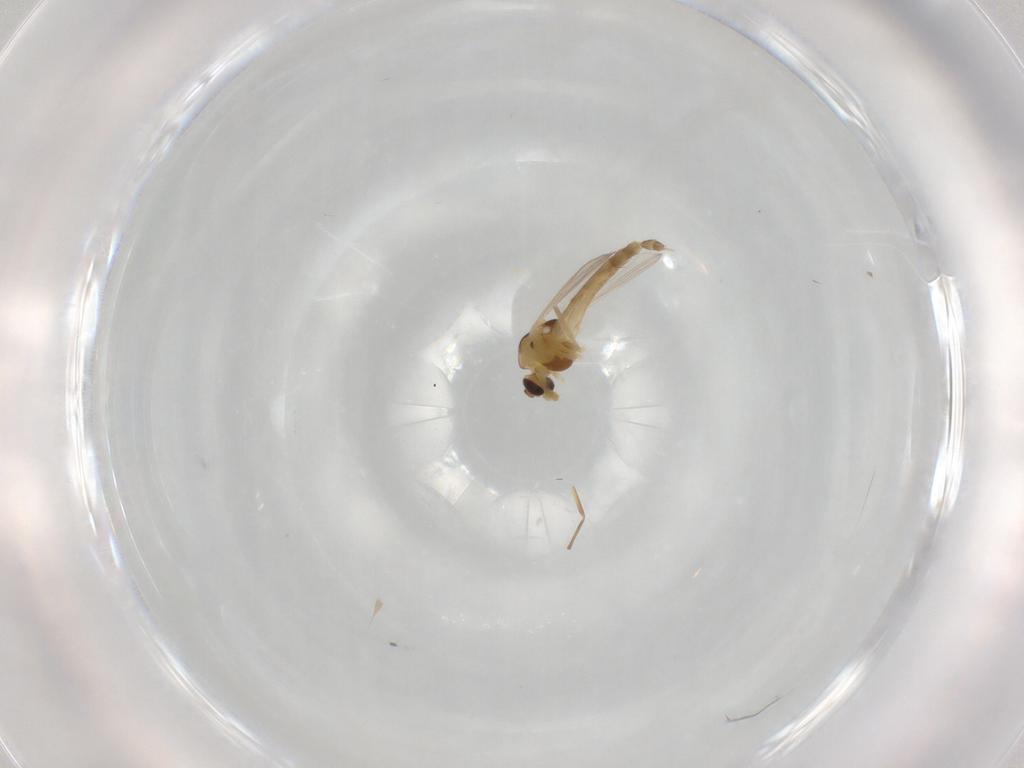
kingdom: Animalia
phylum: Arthropoda
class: Insecta
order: Diptera
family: Chironomidae
